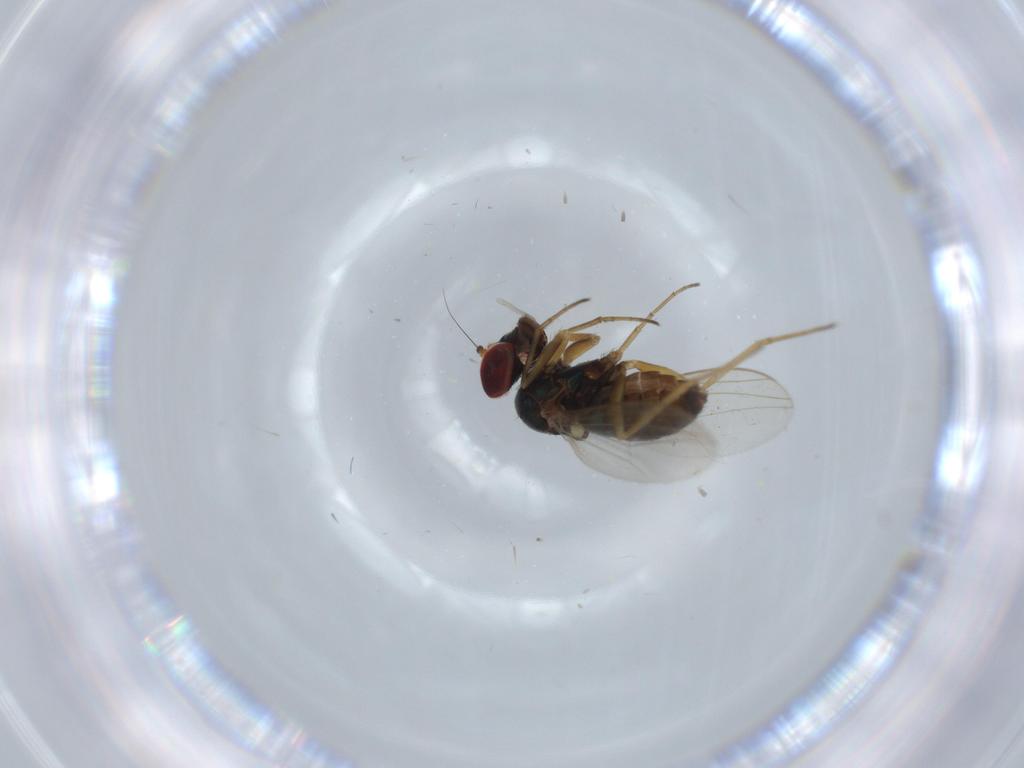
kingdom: Animalia
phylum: Arthropoda
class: Insecta
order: Diptera
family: Dolichopodidae
